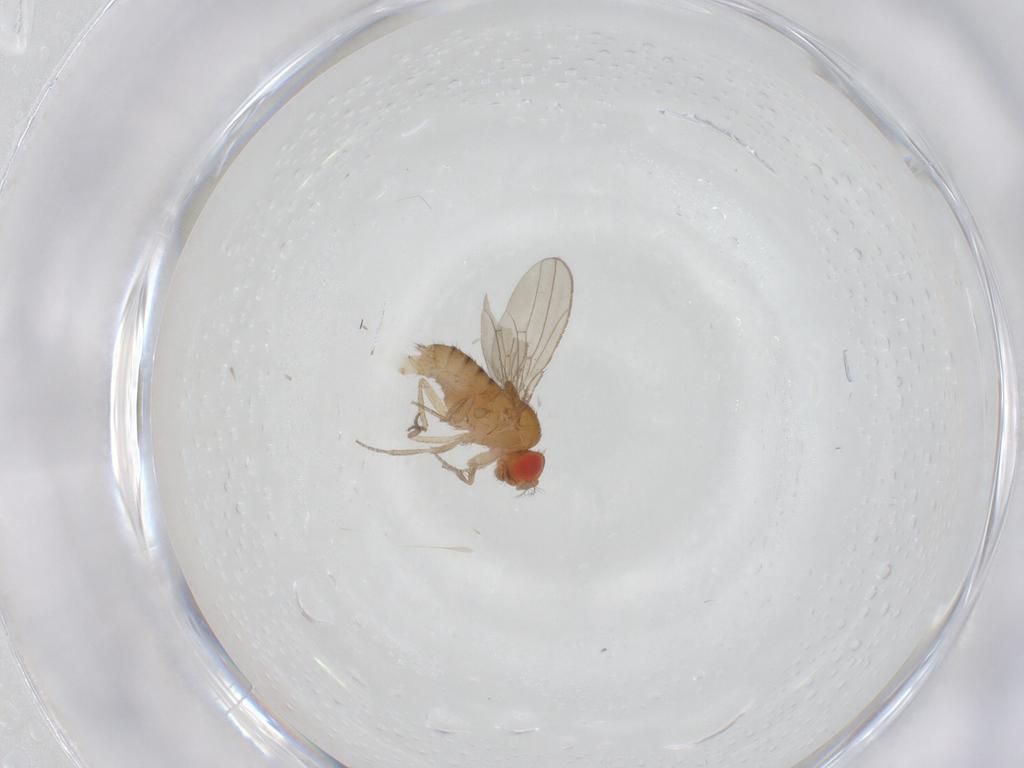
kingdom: Animalia
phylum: Arthropoda
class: Insecta
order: Diptera
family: Drosophilidae
